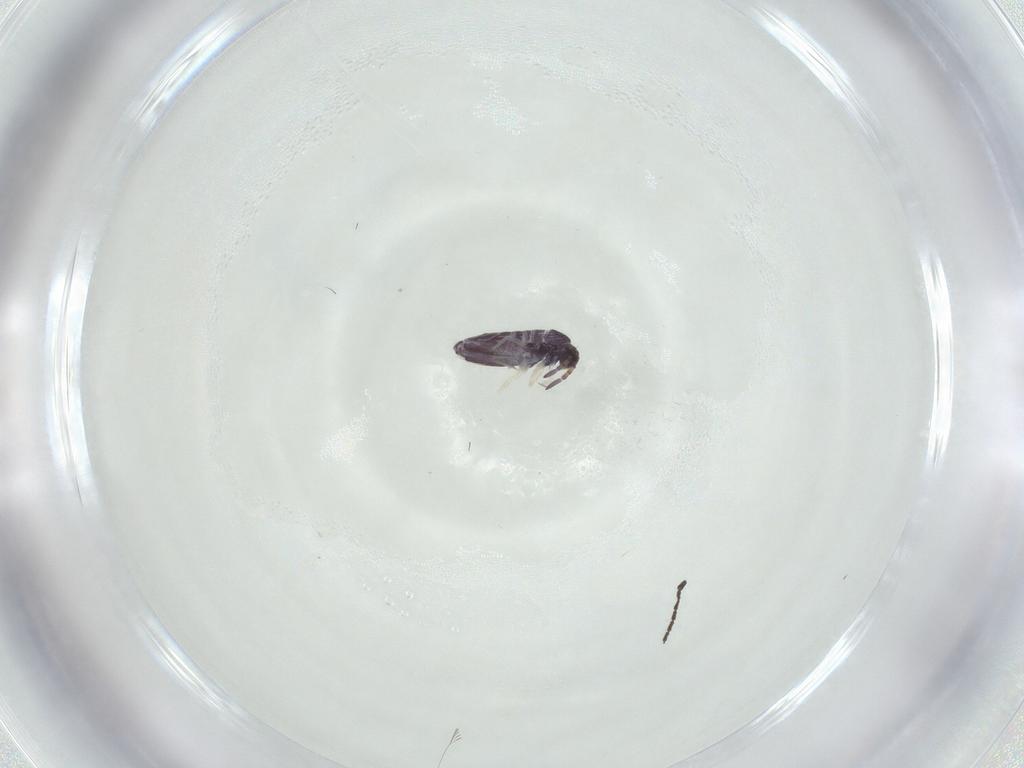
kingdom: Animalia
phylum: Arthropoda
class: Collembola
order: Entomobryomorpha
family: Entomobryidae
